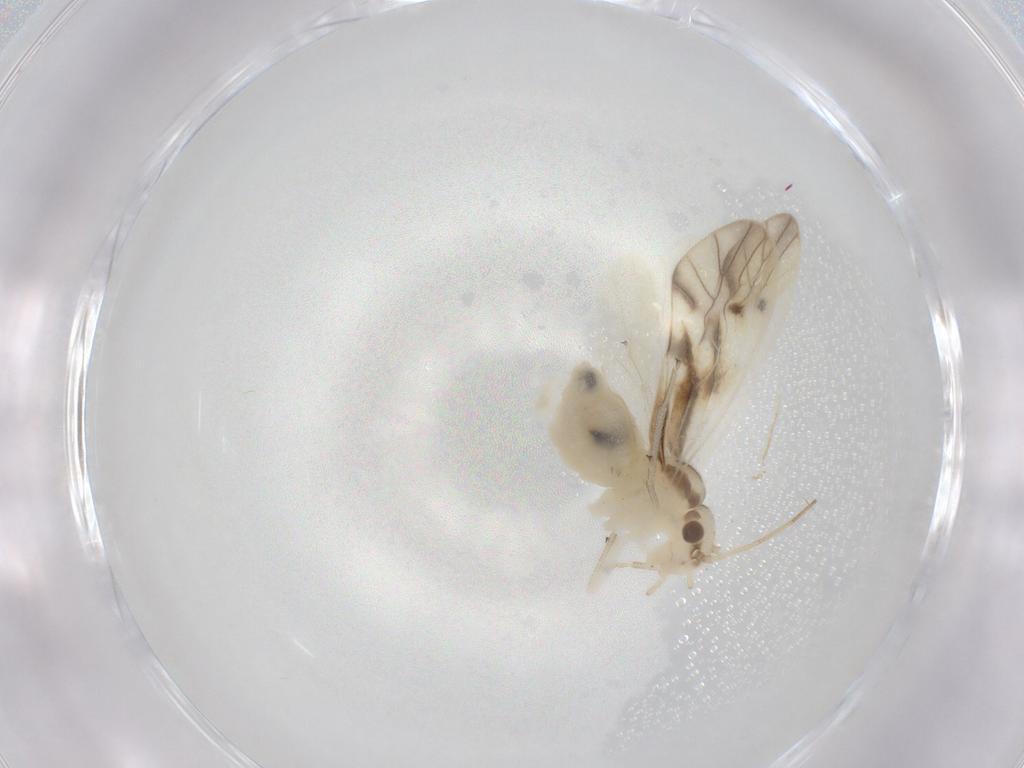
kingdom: Animalia
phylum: Arthropoda
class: Insecta
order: Psocodea
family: Caeciliusidae
